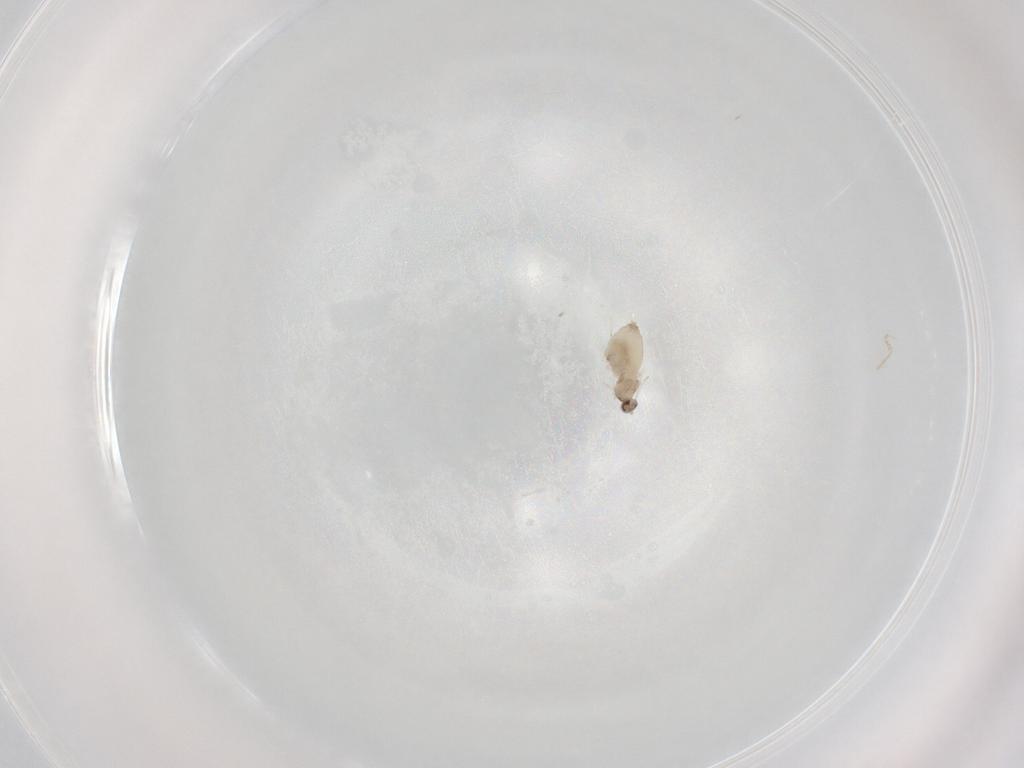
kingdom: Animalia
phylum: Arthropoda
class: Insecta
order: Diptera
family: Cecidomyiidae
